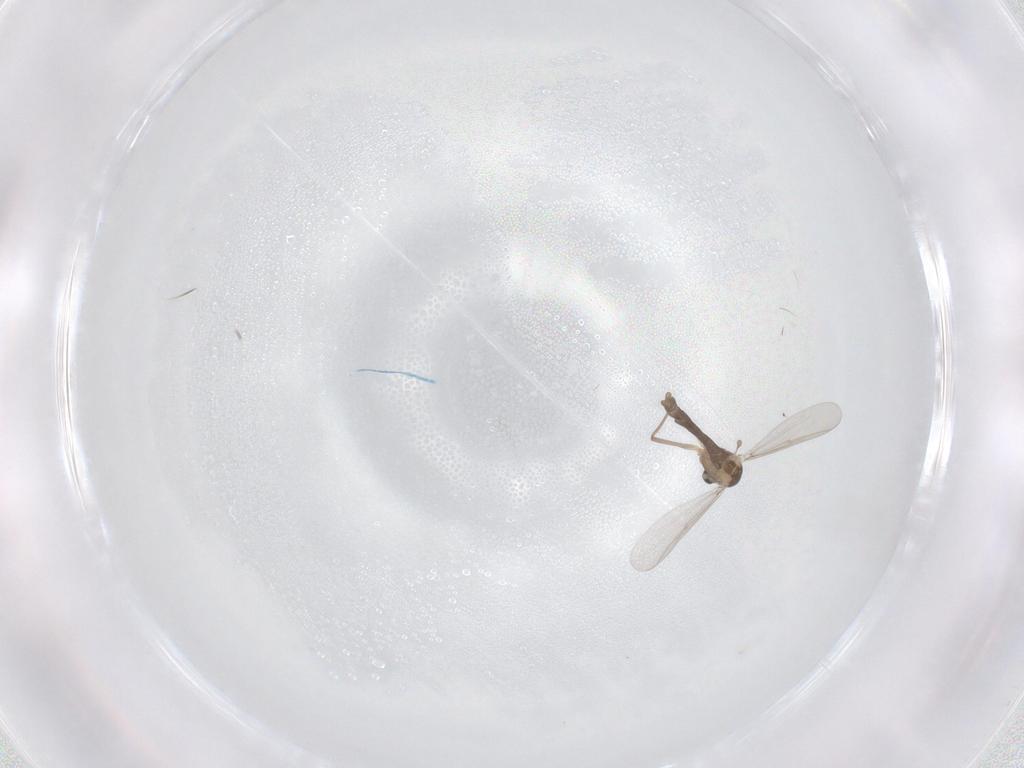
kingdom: Animalia
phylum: Arthropoda
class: Insecta
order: Diptera
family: Chironomidae
